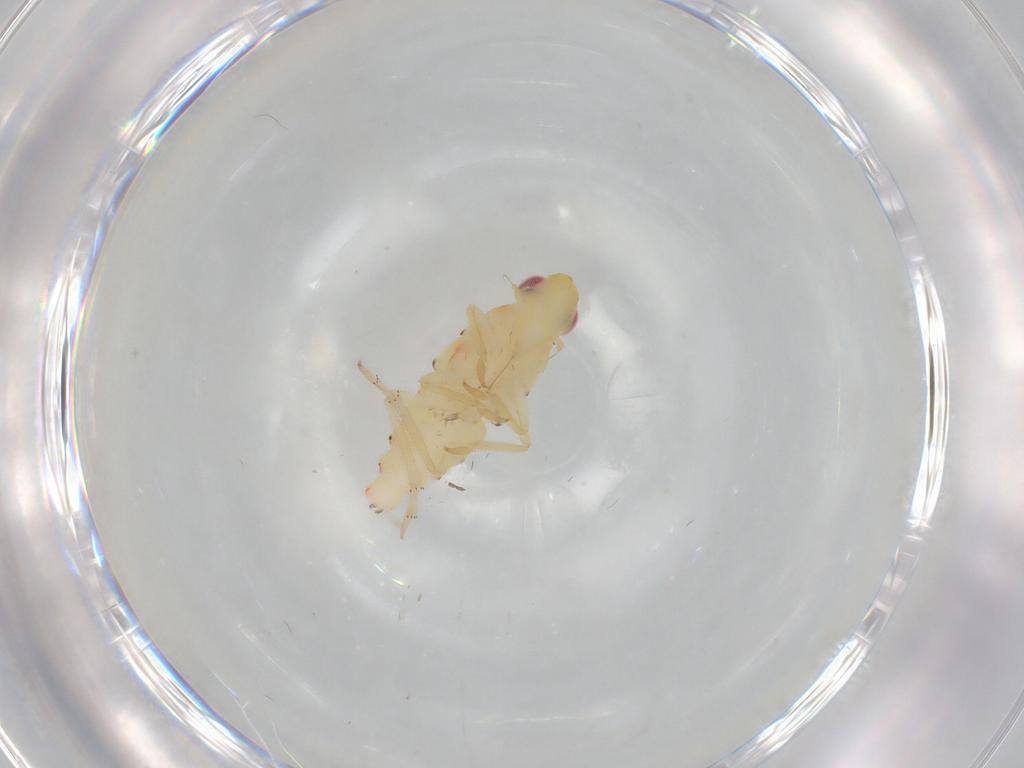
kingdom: Animalia
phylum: Arthropoda
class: Insecta
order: Hemiptera
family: Tropiduchidae
